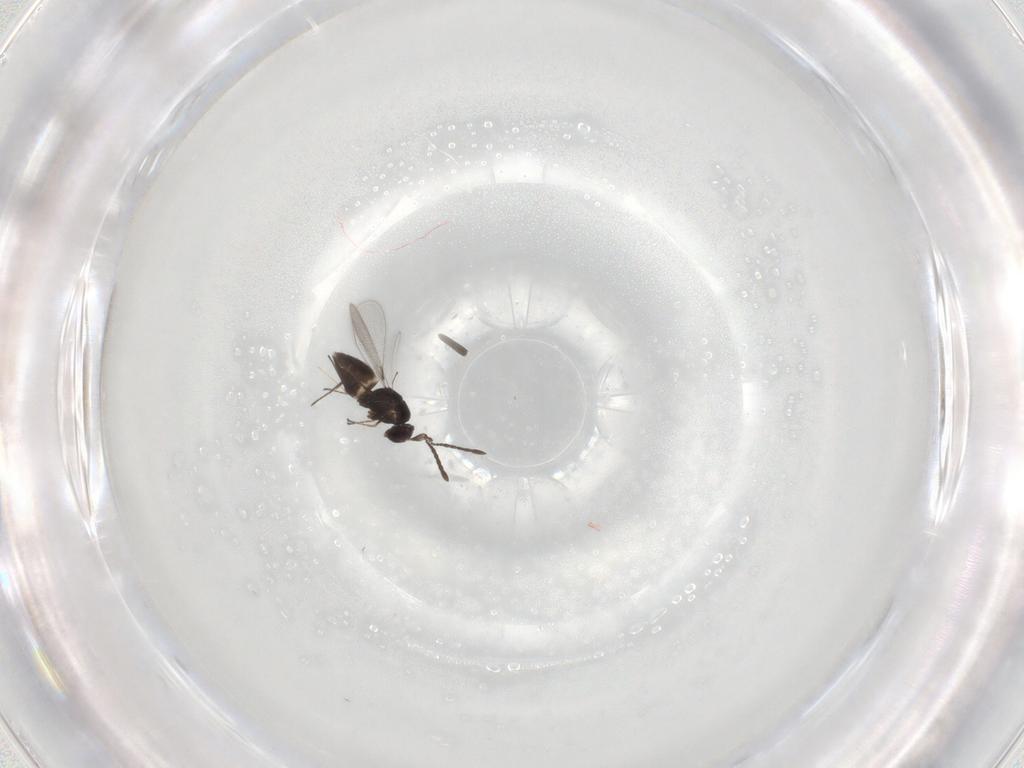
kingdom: Animalia
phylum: Arthropoda
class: Insecta
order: Hymenoptera
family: Mymaridae
